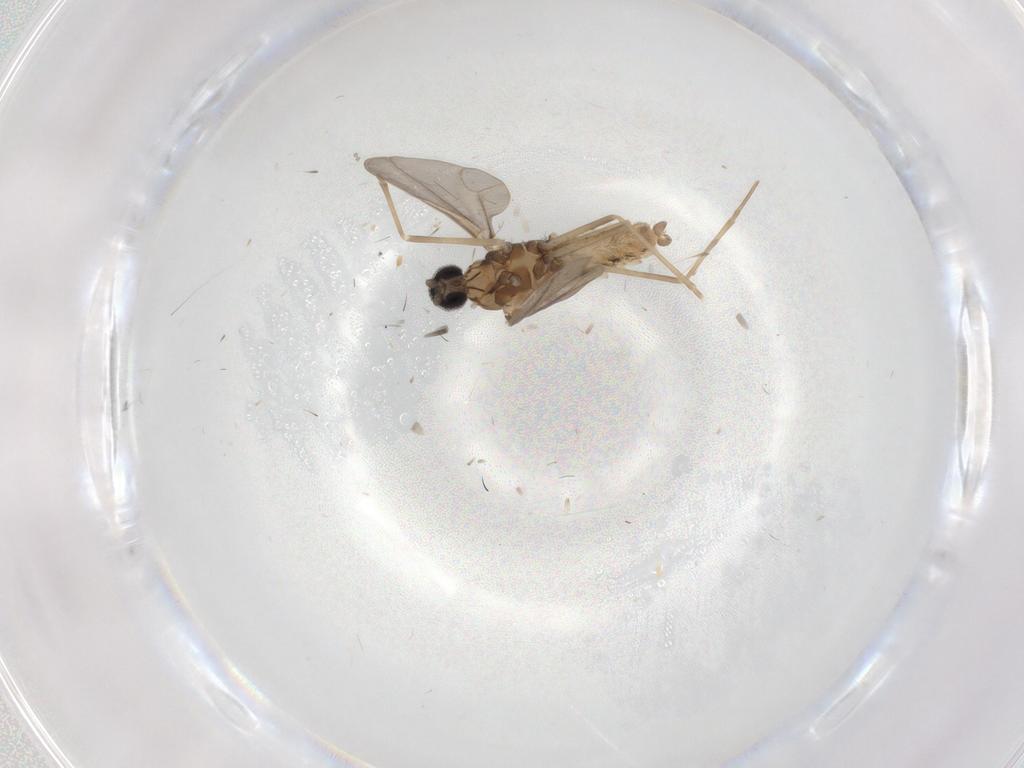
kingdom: Animalia
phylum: Arthropoda
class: Insecta
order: Diptera
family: Cecidomyiidae
